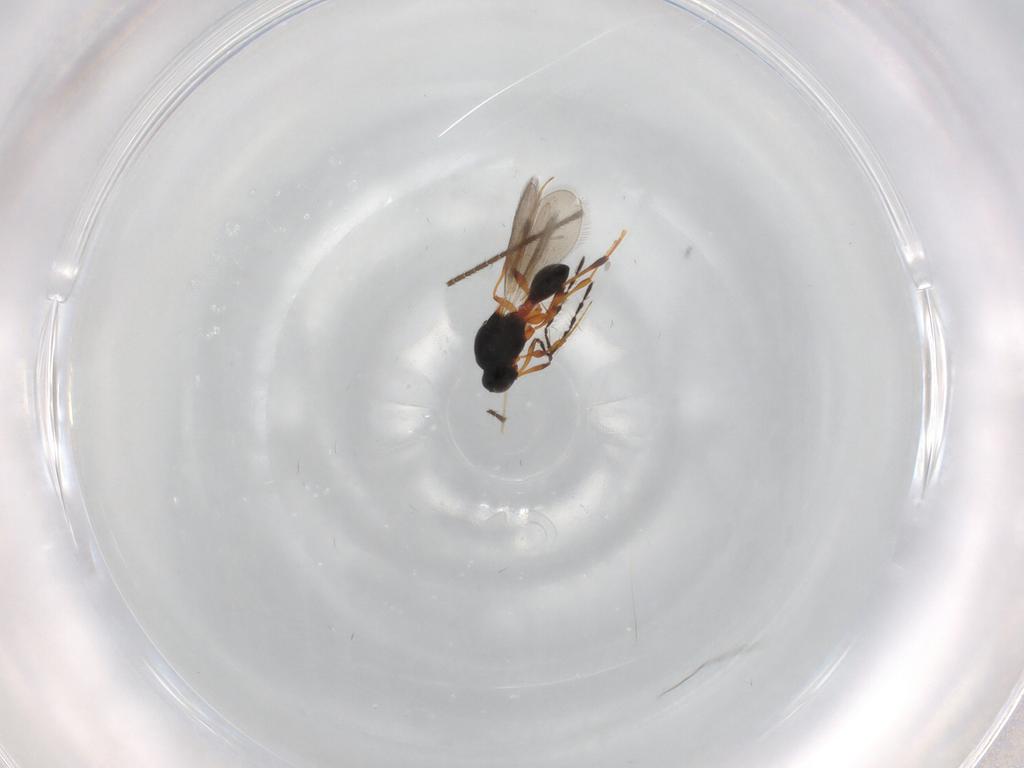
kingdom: Animalia
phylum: Arthropoda
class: Insecta
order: Hymenoptera
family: Platygastridae
